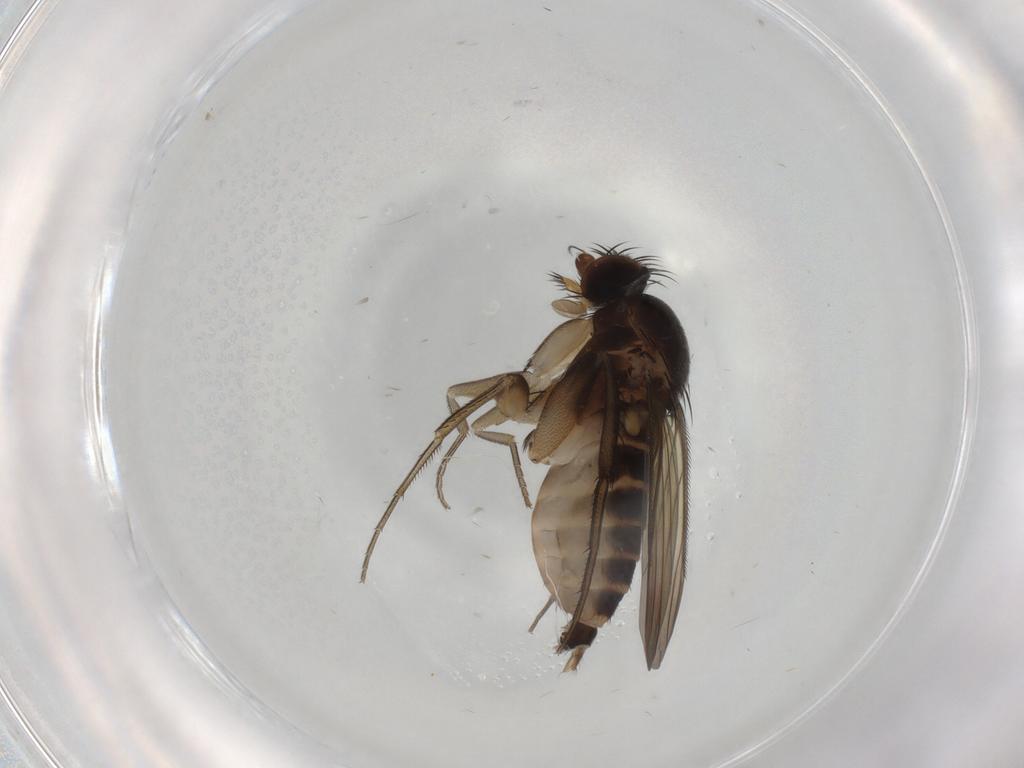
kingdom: Animalia
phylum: Arthropoda
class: Insecta
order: Diptera
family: Phoridae
